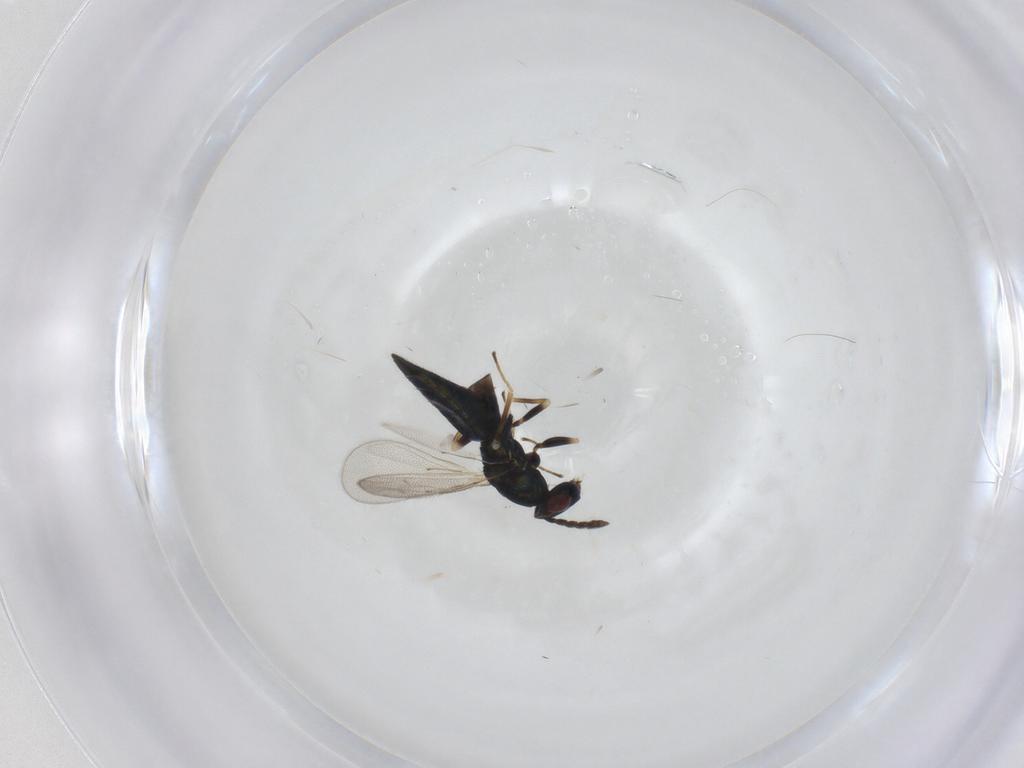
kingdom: Animalia
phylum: Arthropoda
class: Insecta
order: Hymenoptera
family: Eulophidae
